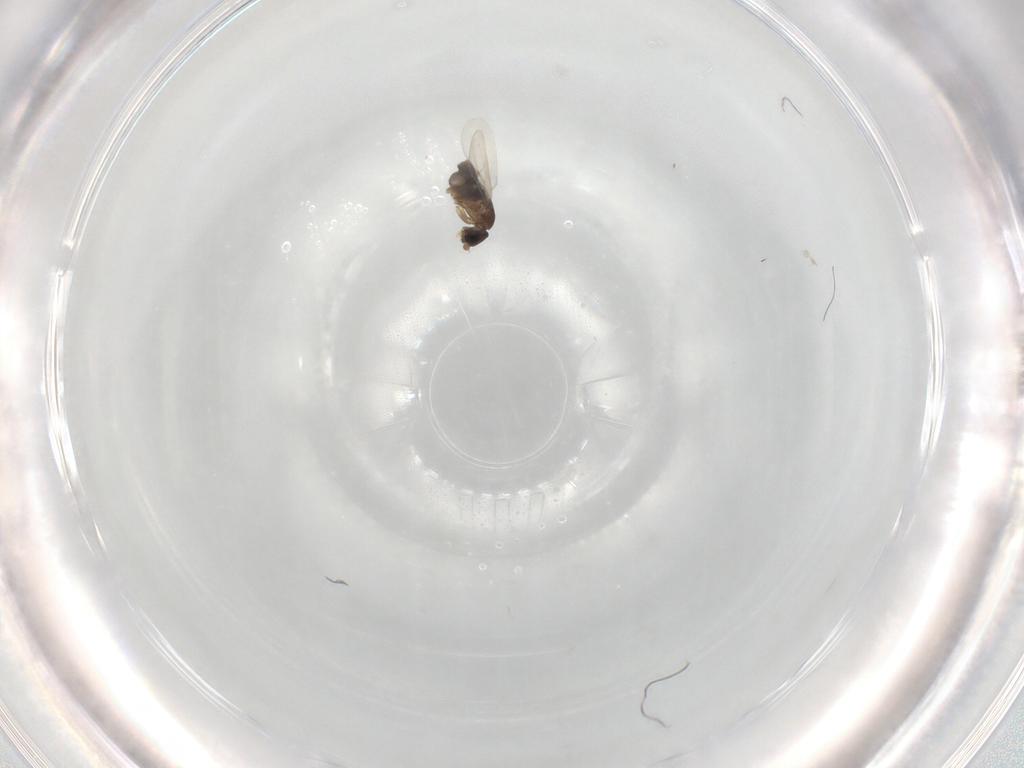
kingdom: Animalia
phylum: Arthropoda
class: Insecta
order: Diptera
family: Phoridae
